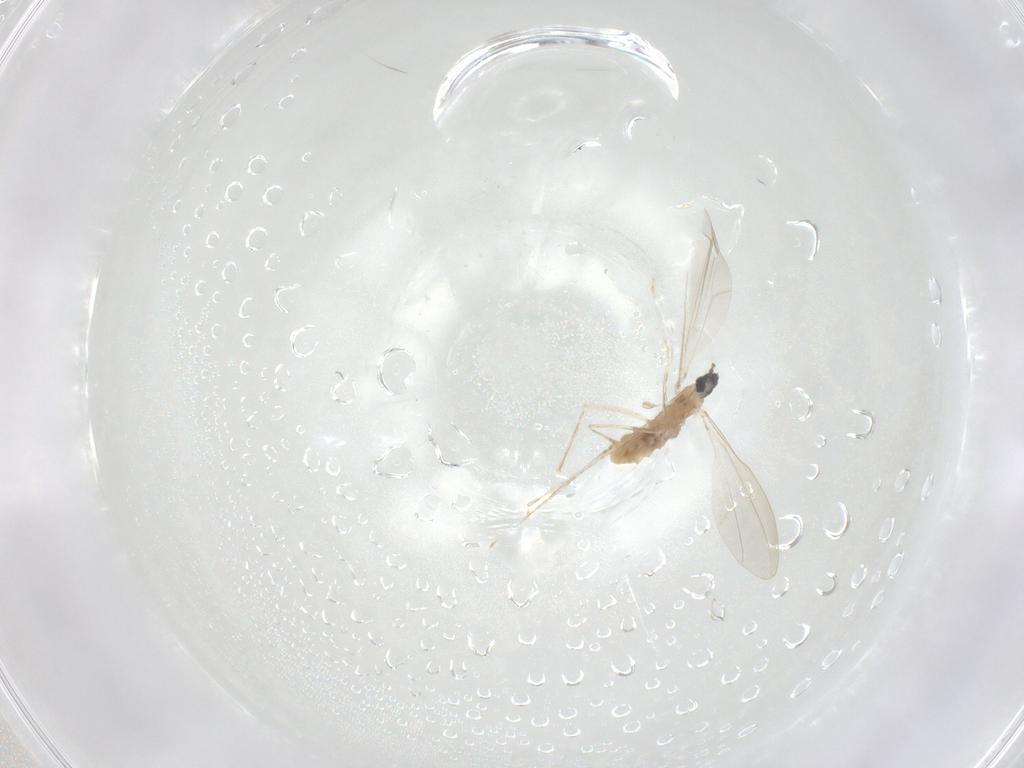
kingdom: Animalia
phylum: Arthropoda
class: Insecta
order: Diptera
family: Cecidomyiidae
